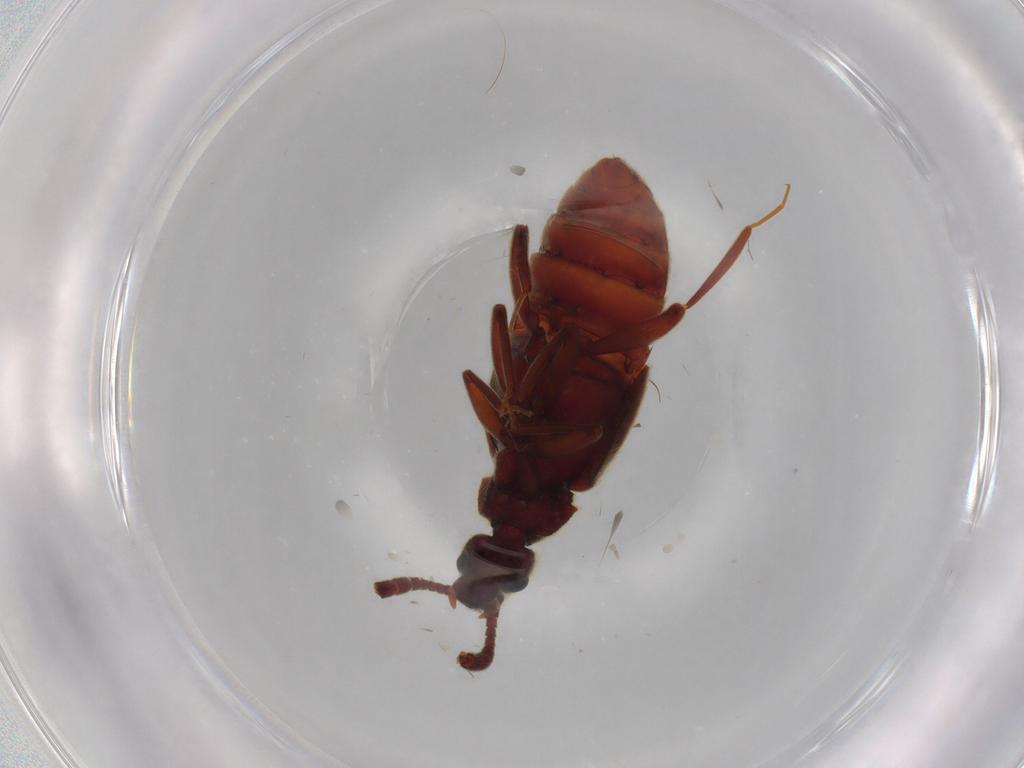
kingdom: Animalia
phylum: Arthropoda
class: Insecta
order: Coleoptera
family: Staphylinidae
